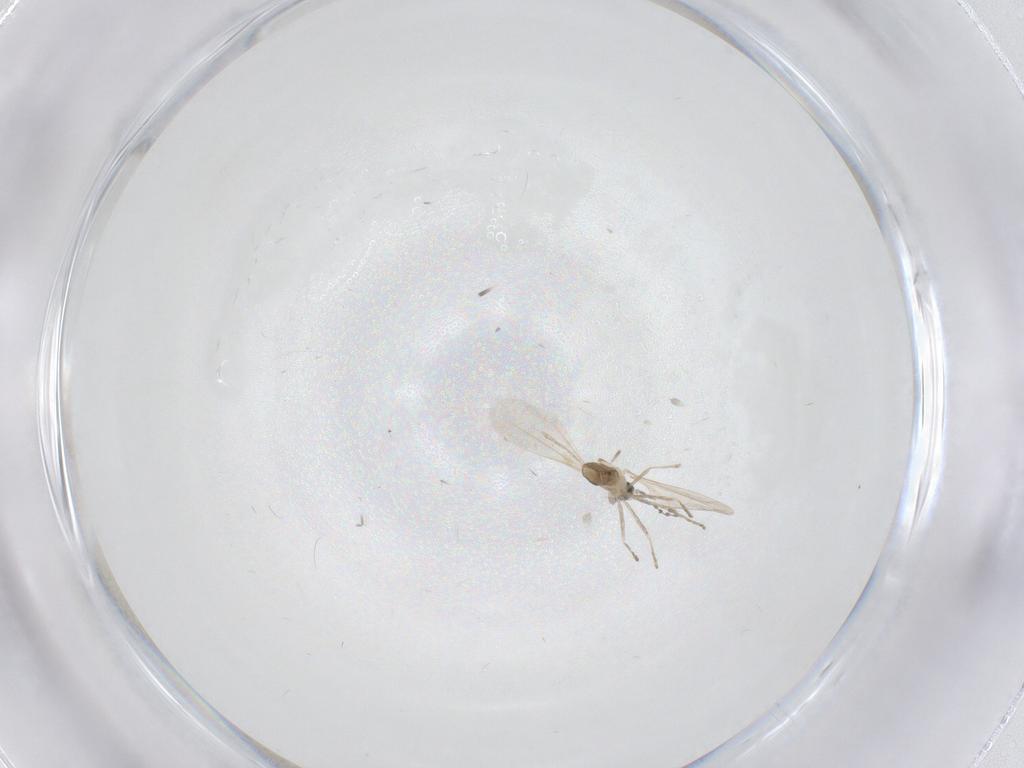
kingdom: Animalia
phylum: Arthropoda
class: Insecta
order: Diptera
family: Cecidomyiidae
